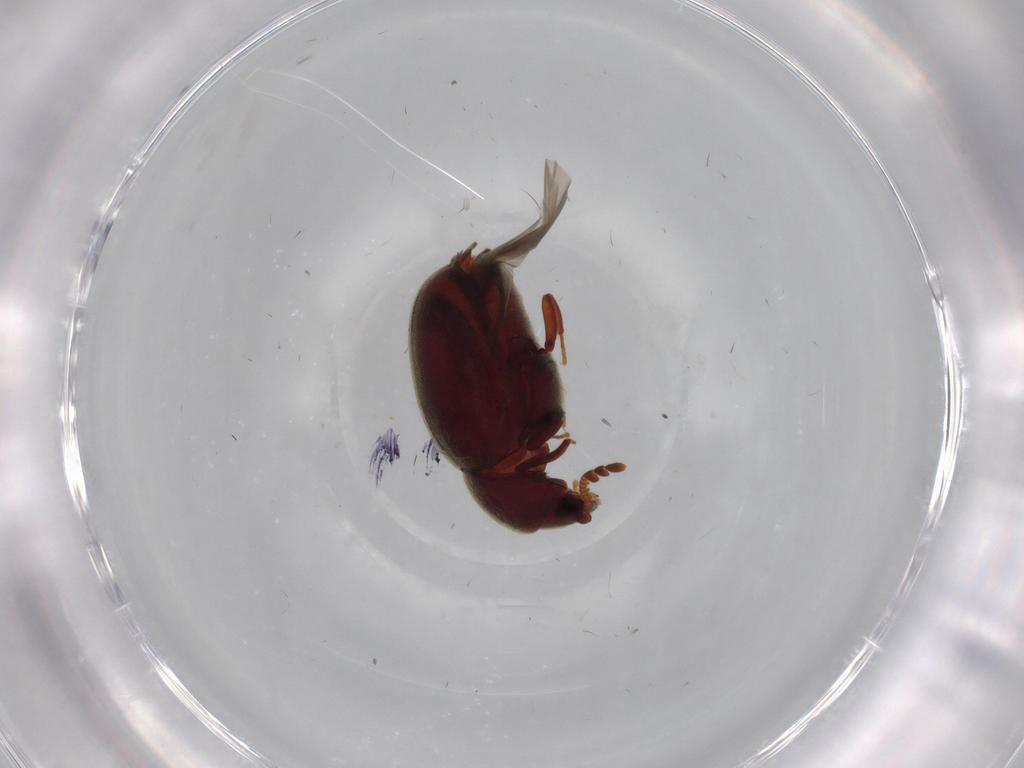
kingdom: Animalia
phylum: Arthropoda
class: Insecta
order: Coleoptera
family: Ptinidae
